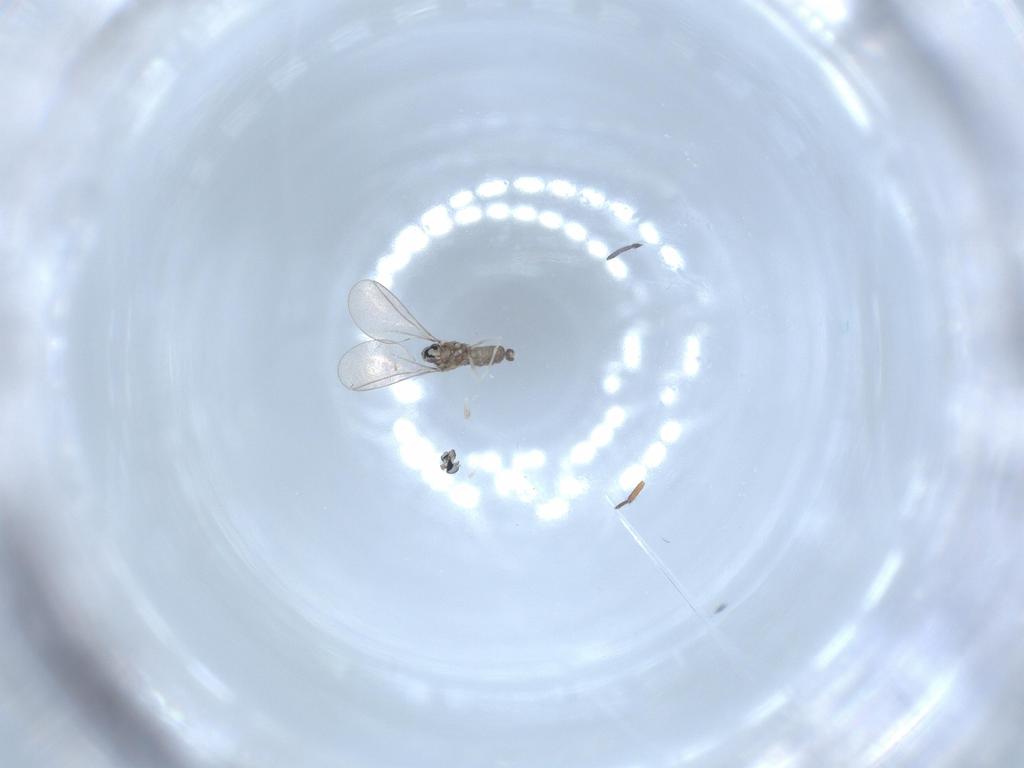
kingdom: Animalia
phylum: Arthropoda
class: Insecta
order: Diptera
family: Cecidomyiidae
